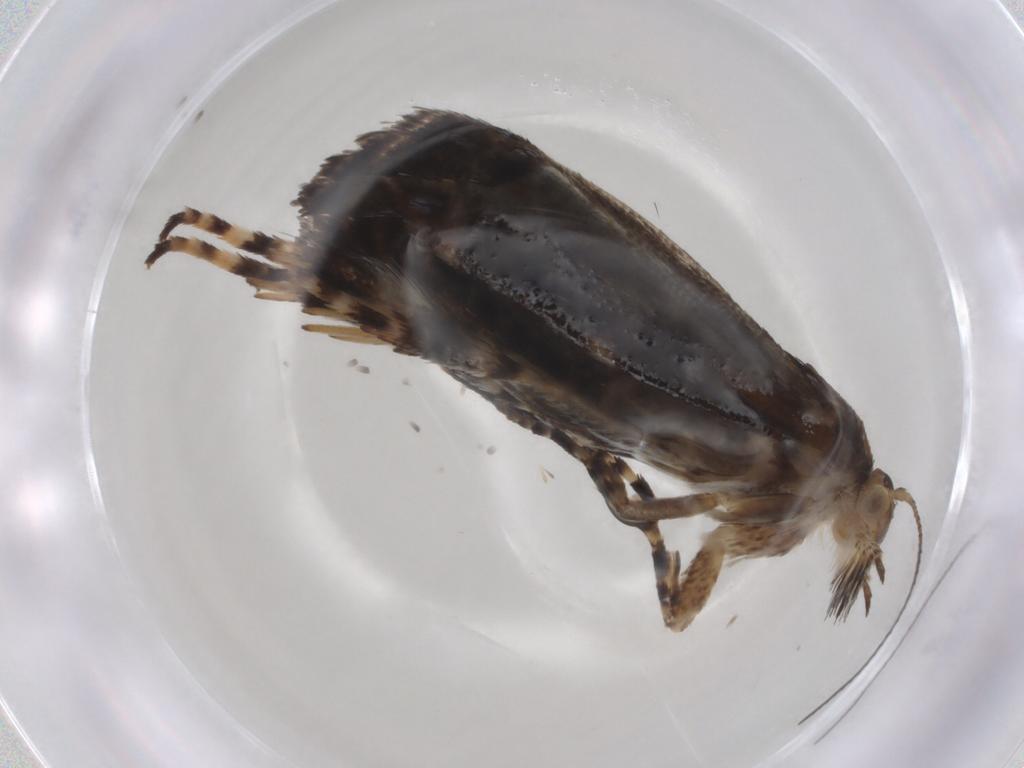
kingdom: Animalia
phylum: Arthropoda
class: Insecta
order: Lepidoptera
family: Choreutidae
